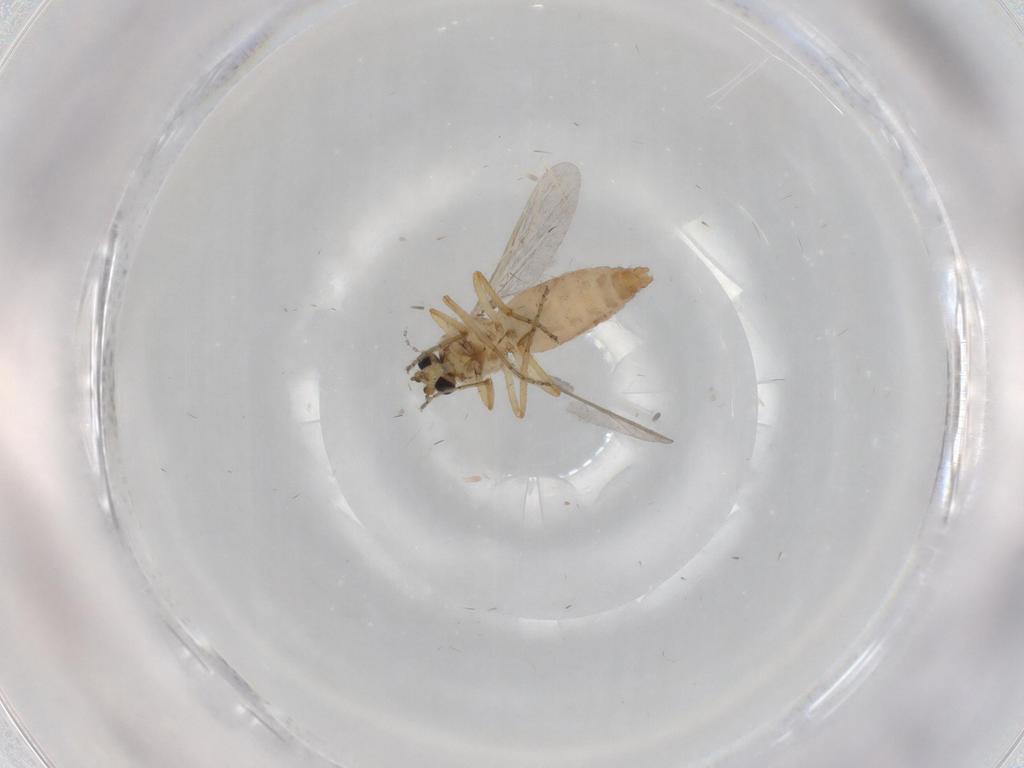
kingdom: Animalia
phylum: Arthropoda
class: Insecta
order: Diptera
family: Ceratopogonidae
